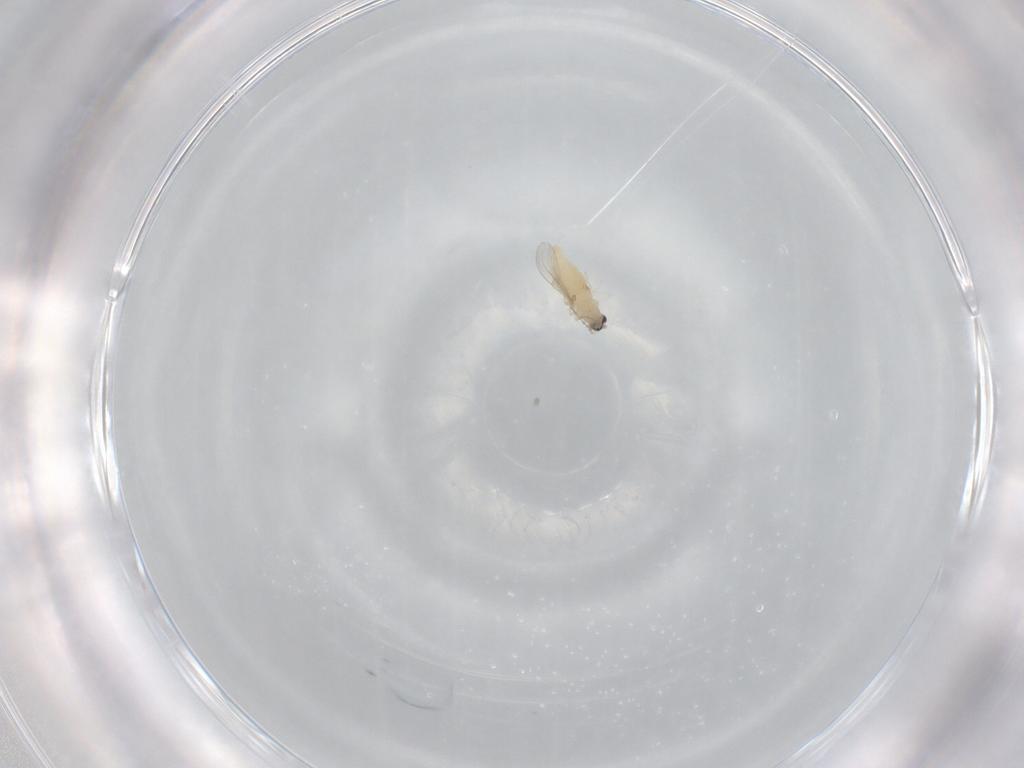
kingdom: Animalia
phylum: Arthropoda
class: Insecta
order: Diptera
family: Cecidomyiidae
